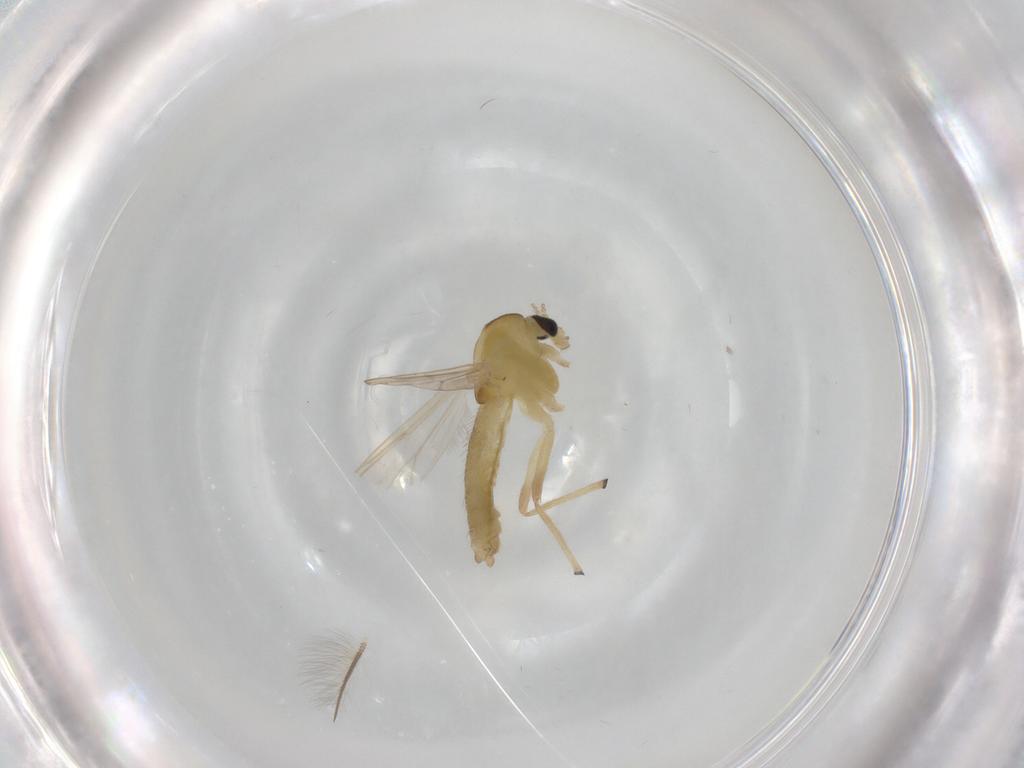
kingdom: Animalia
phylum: Arthropoda
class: Insecta
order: Diptera
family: Chironomidae
